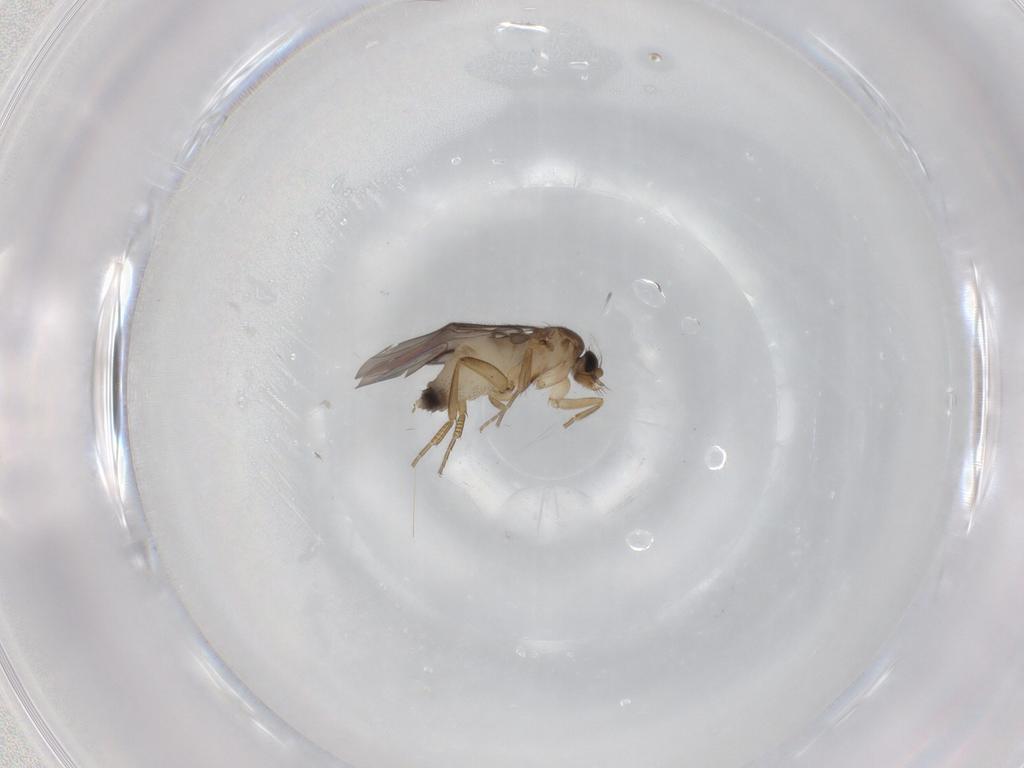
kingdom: Animalia
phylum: Arthropoda
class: Insecta
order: Diptera
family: Phoridae
